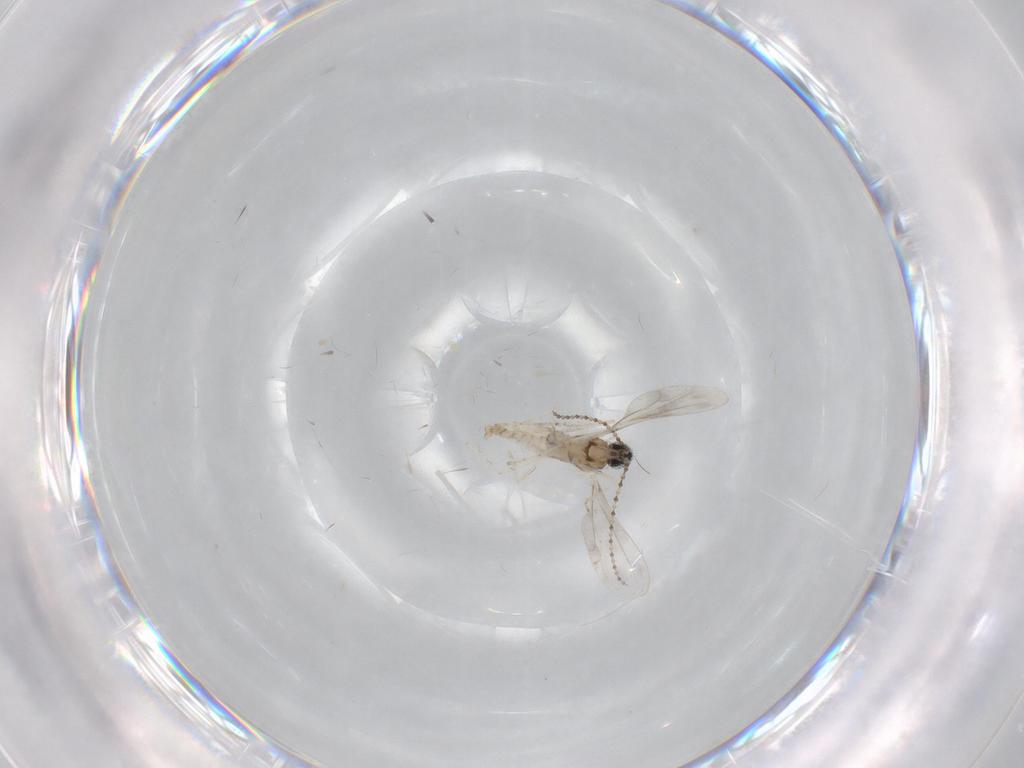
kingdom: Animalia
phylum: Arthropoda
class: Insecta
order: Diptera
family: Cecidomyiidae
